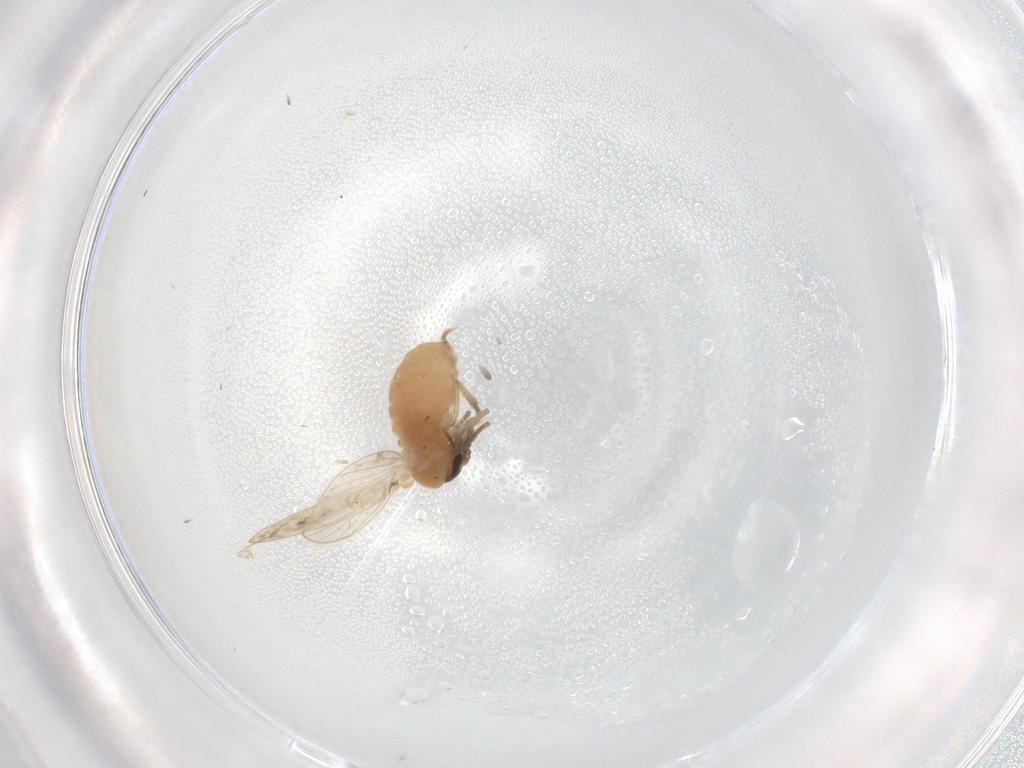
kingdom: Animalia
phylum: Arthropoda
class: Insecta
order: Diptera
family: Psychodidae
